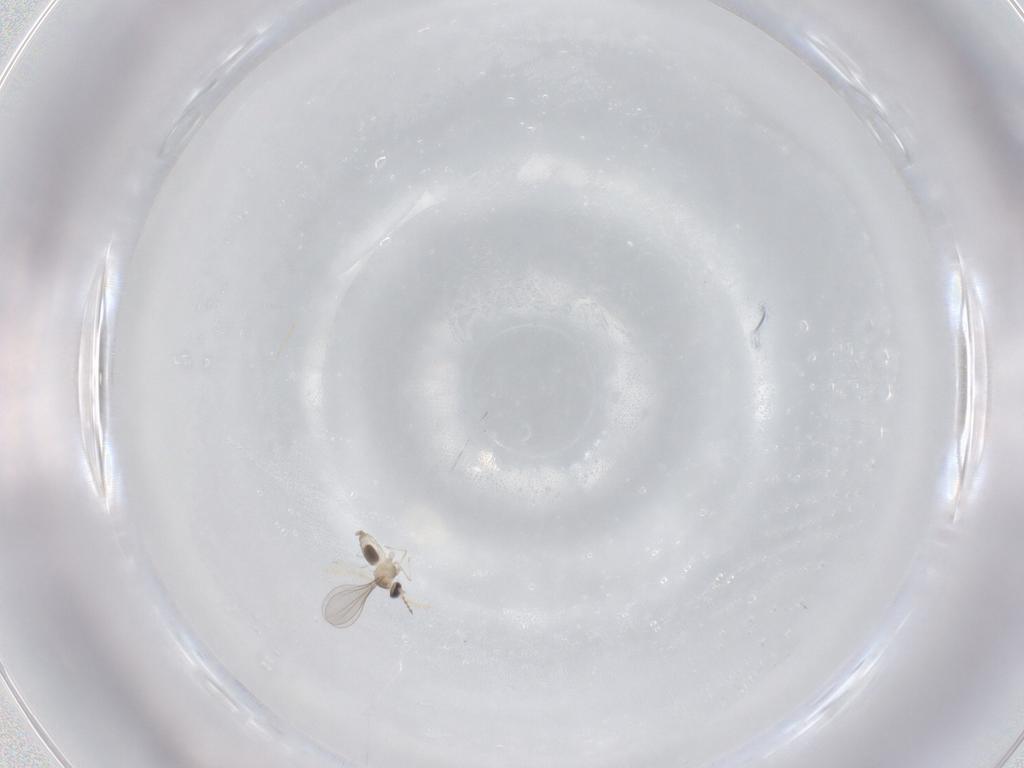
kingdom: Animalia
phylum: Arthropoda
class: Insecta
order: Diptera
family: Cecidomyiidae
